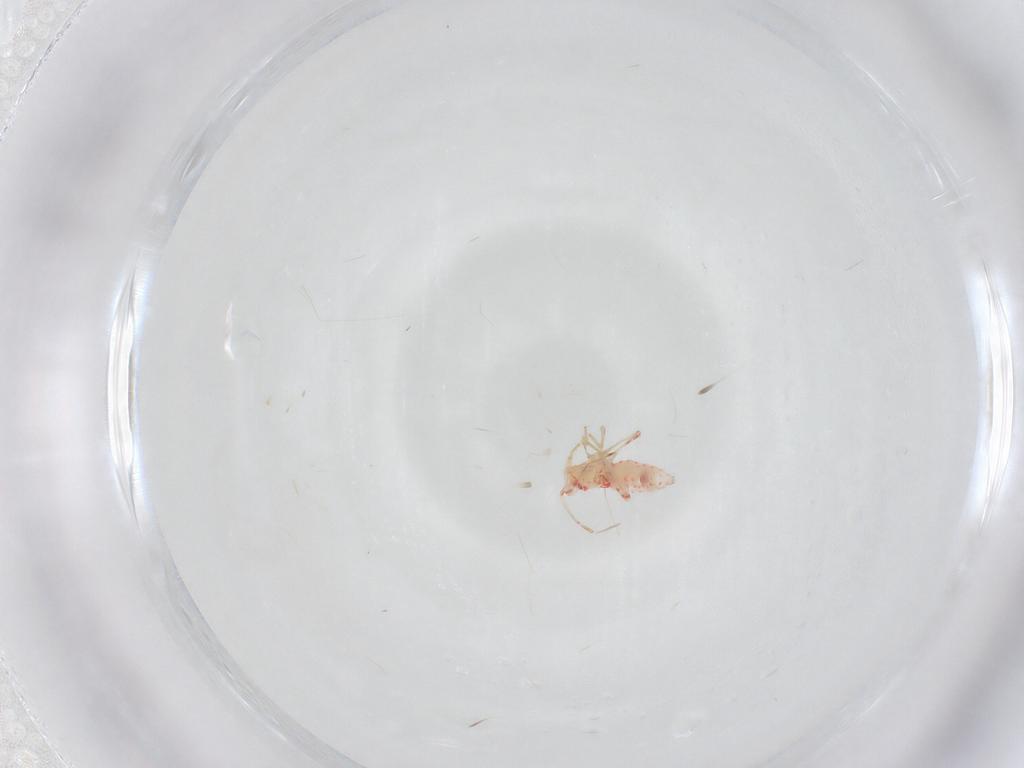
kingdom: Animalia
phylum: Arthropoda
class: Insecta
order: Hemiptera
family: Miridae
